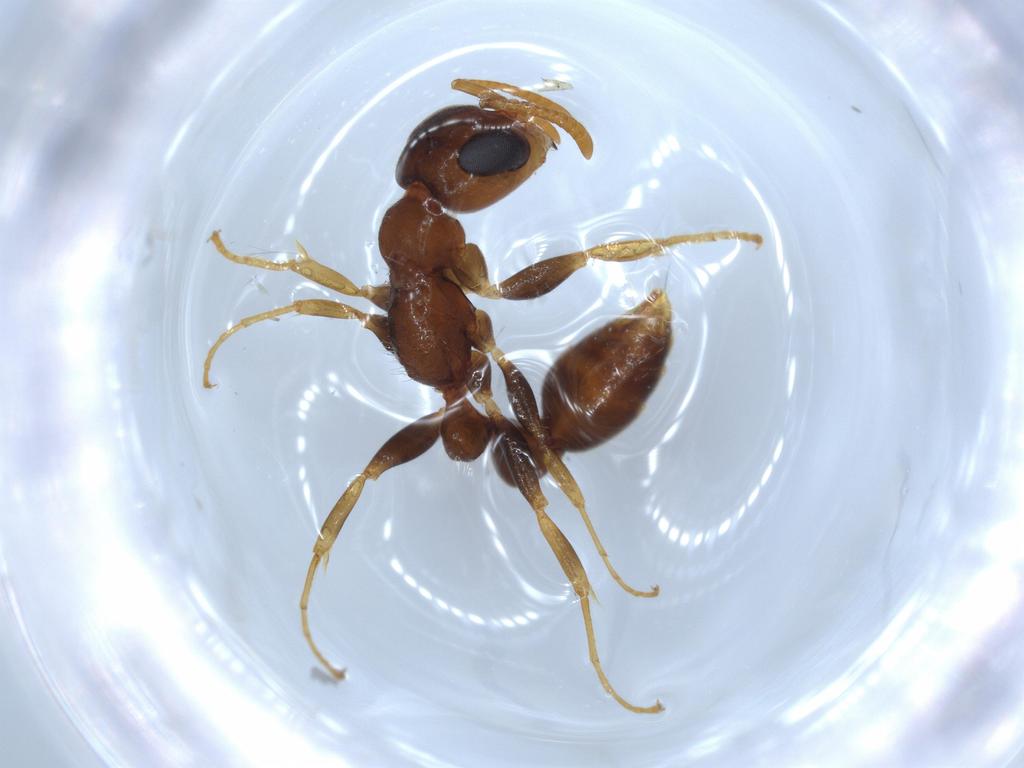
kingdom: Animalia
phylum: Arthropoda
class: Insecta
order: Hymenoptera
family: Formicidae
